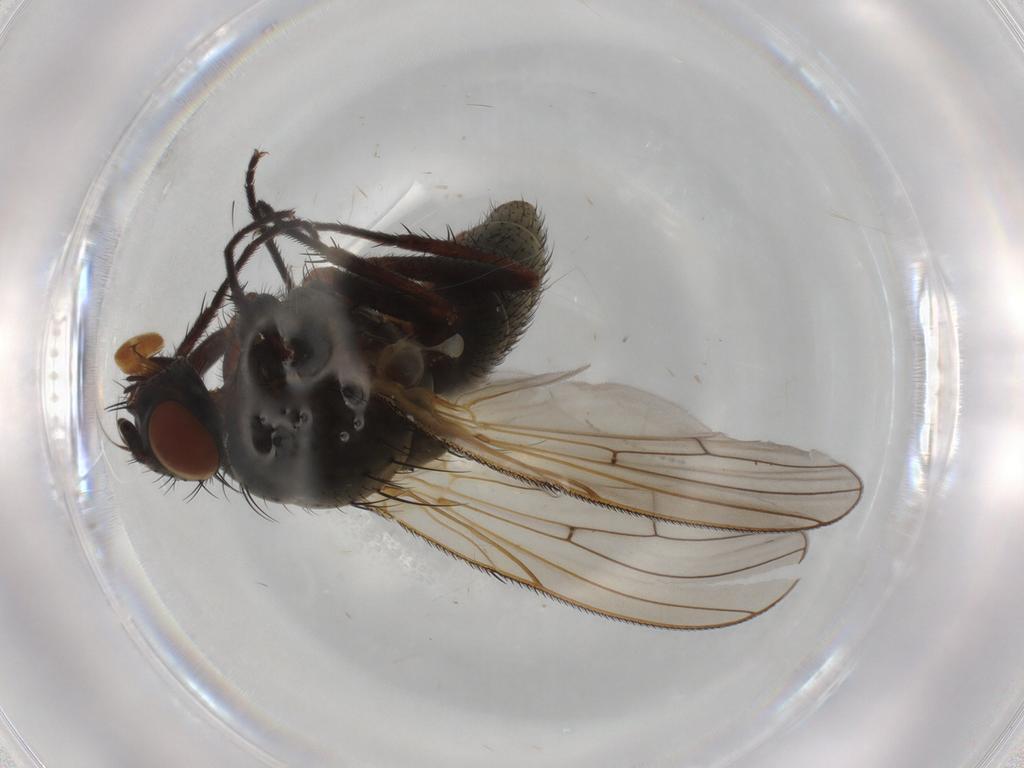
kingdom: Animalia
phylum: Arthropoda
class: Insecta
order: Diptera
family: Anthomyiidae
